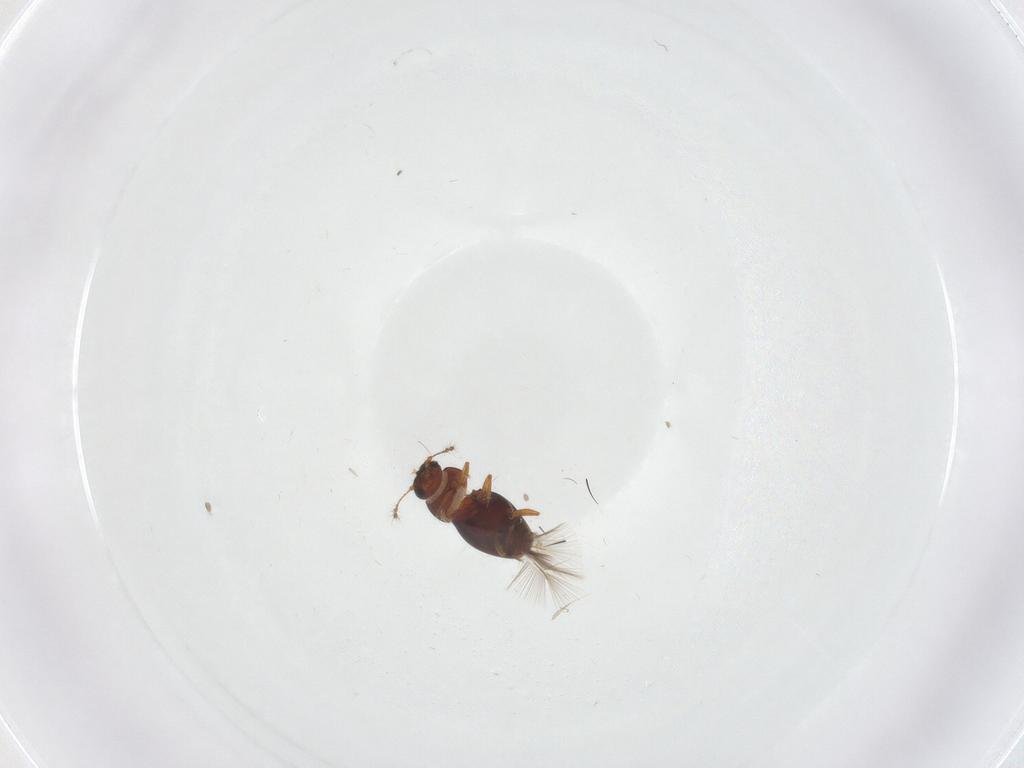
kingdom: Animalia
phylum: Arthropoda
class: Insecta
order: Coleoptera
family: Ptiliidae
